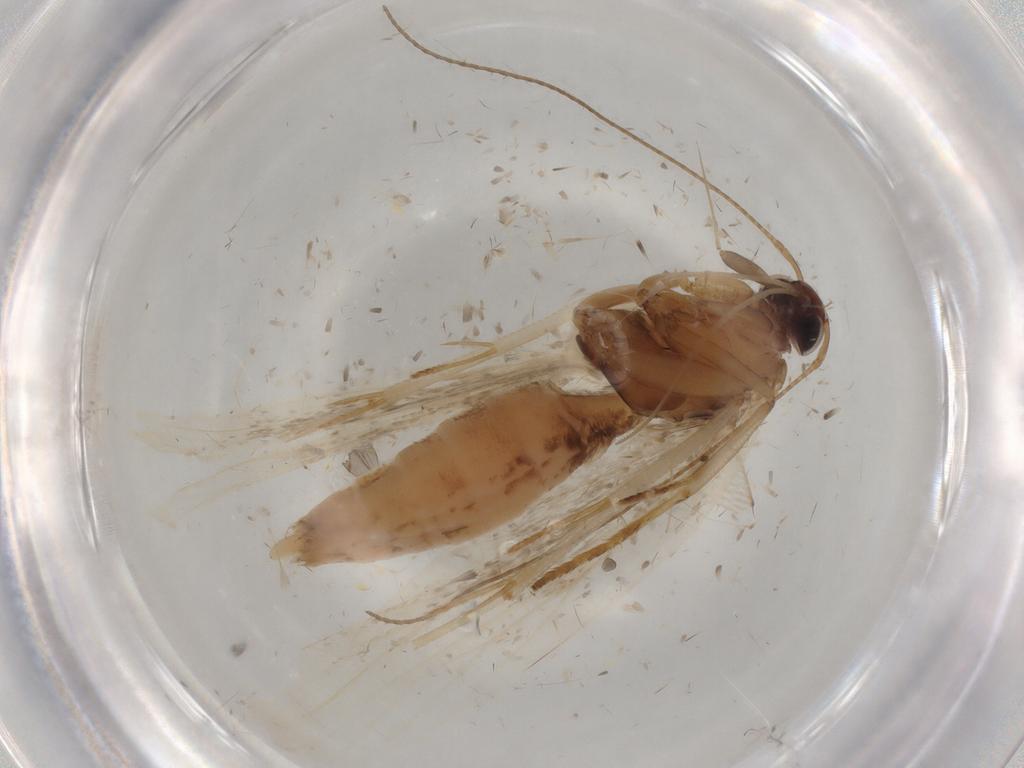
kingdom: Animalia
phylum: Arthropoda
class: Insecta
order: Lepidoptera
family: Gelechiidae
